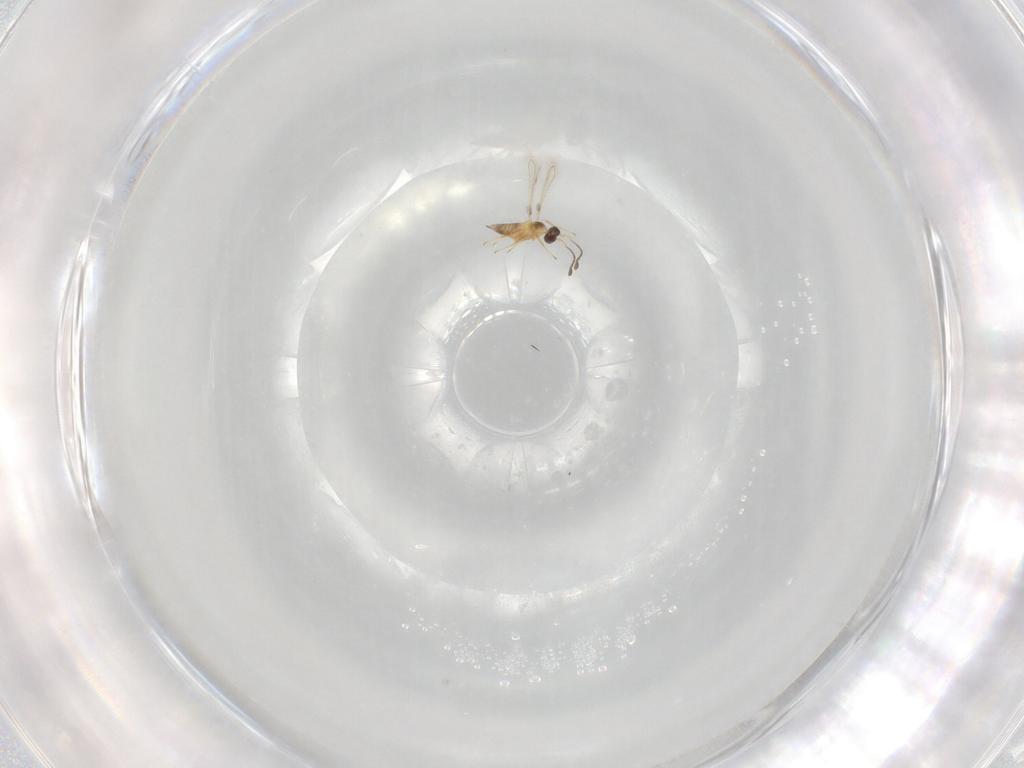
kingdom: Animalia
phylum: Arthropoda
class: Insecta
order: Hymenoptera
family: Mymaridae
